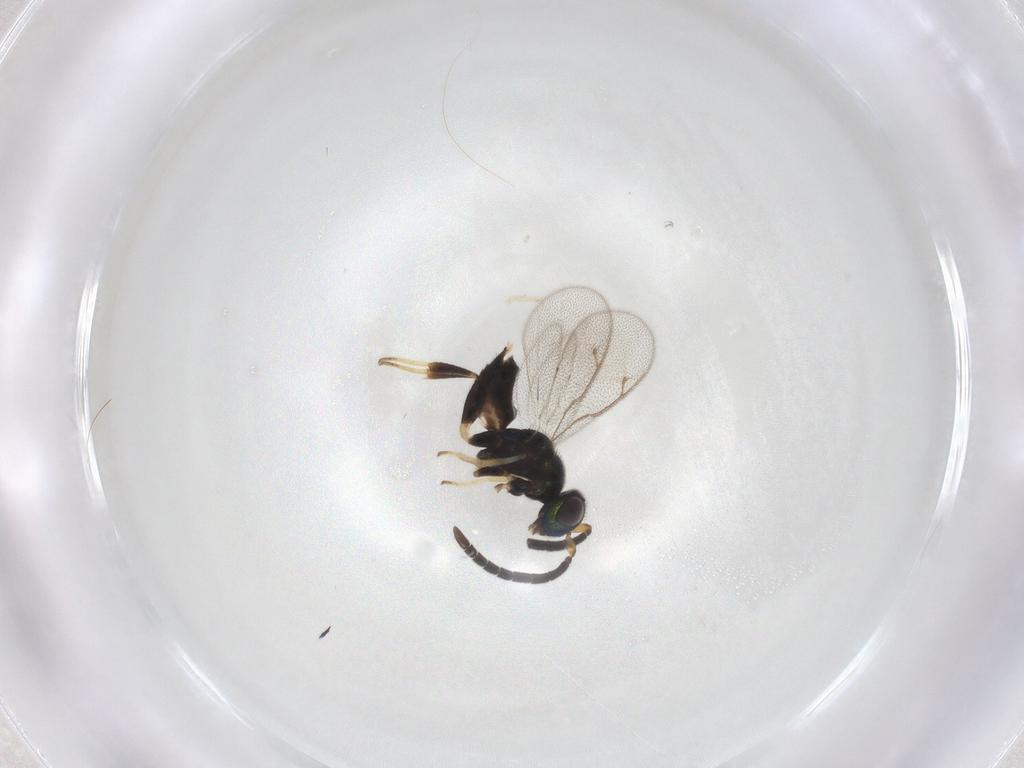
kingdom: Animalia
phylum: Arthropoda
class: Insecta
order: Hymenoptera
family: Eupelmidae
